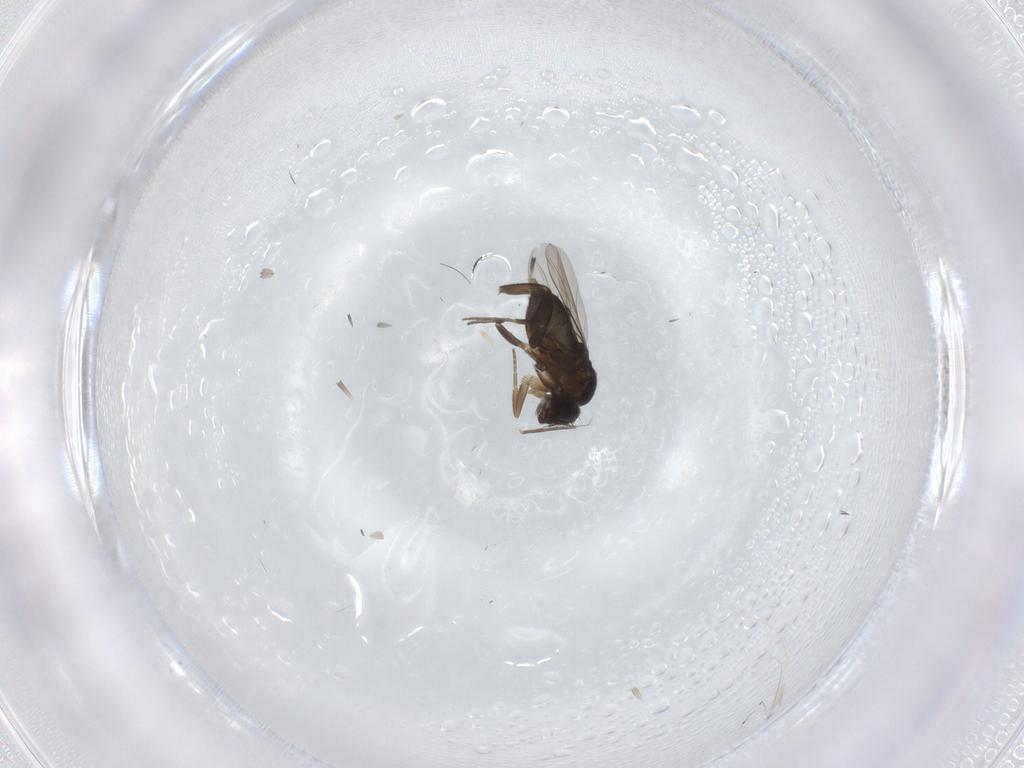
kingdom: Animalia
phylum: Arthropoda
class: Insecta
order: Diptera
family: Phoridae
